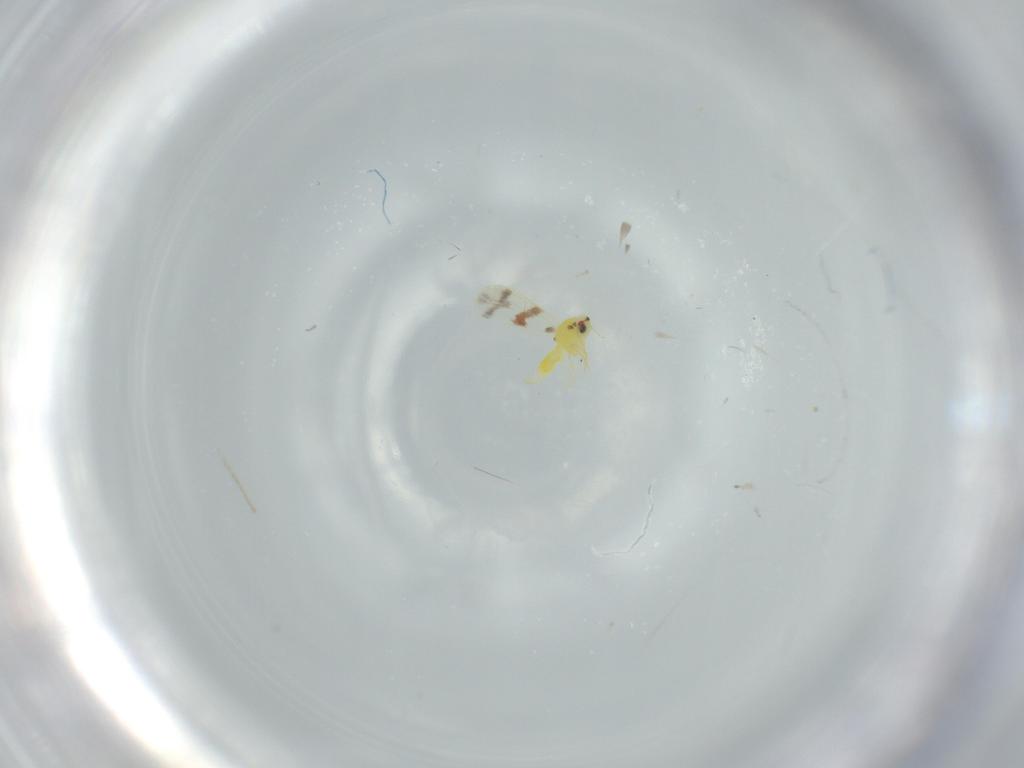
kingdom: Animalia
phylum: Arthropoda
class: Insecta
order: Hemiptera
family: Aleyrodidae
